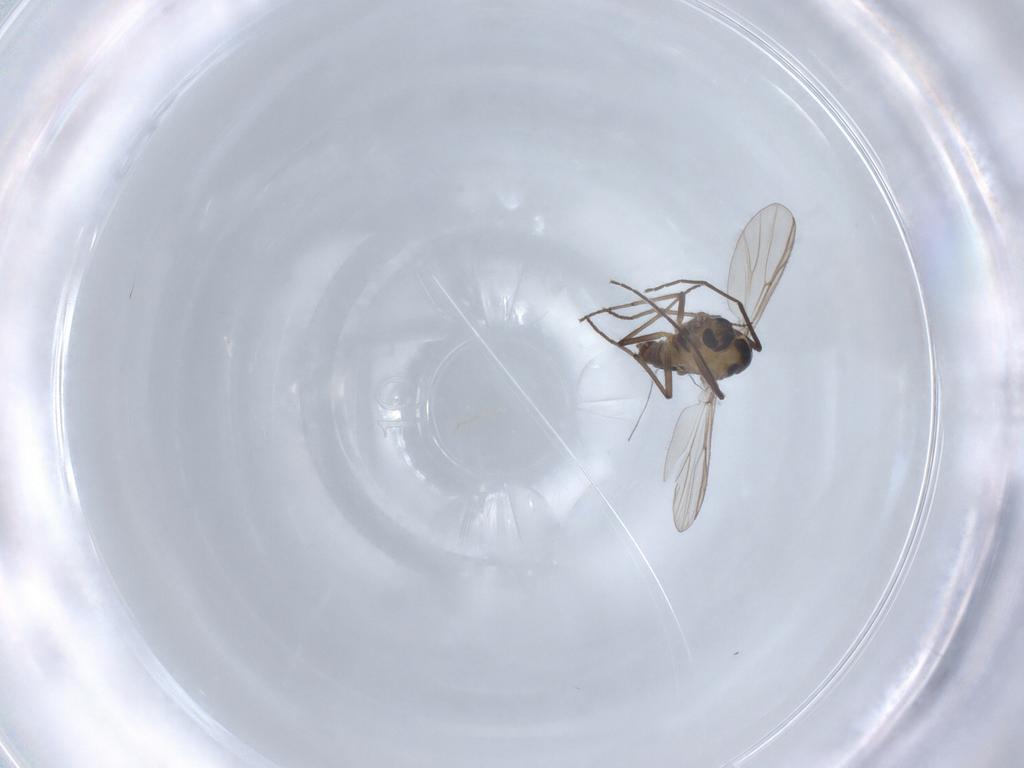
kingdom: Animalia
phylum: Arthropoda
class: Insecta
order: Diptera
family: Chironomidae
